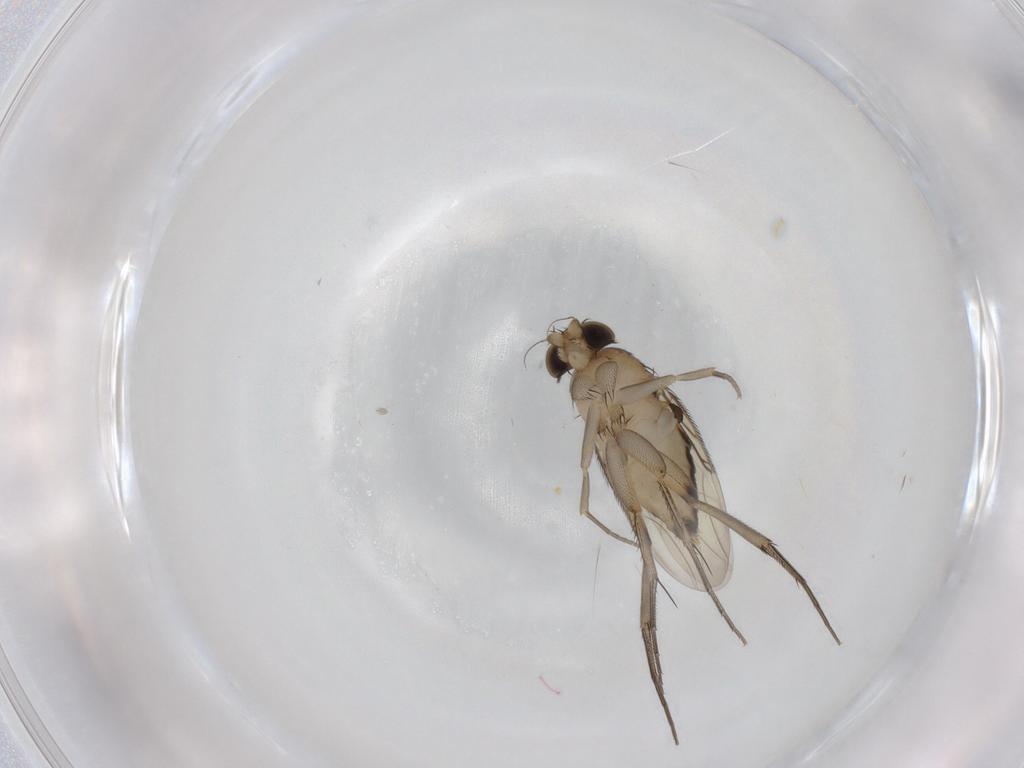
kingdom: Animalia
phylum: Arthropoda
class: Insecta
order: Diptera
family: Phoridae
